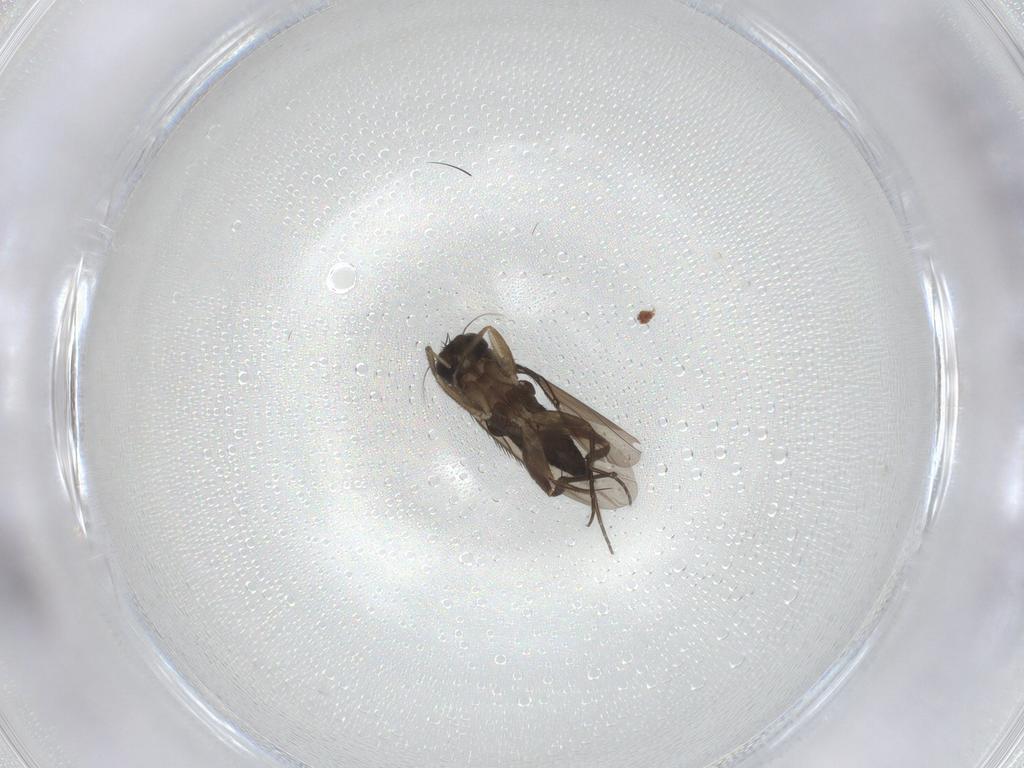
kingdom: Animalia
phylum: Arthropoda
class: Insecta
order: Diptera
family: Phoridae
